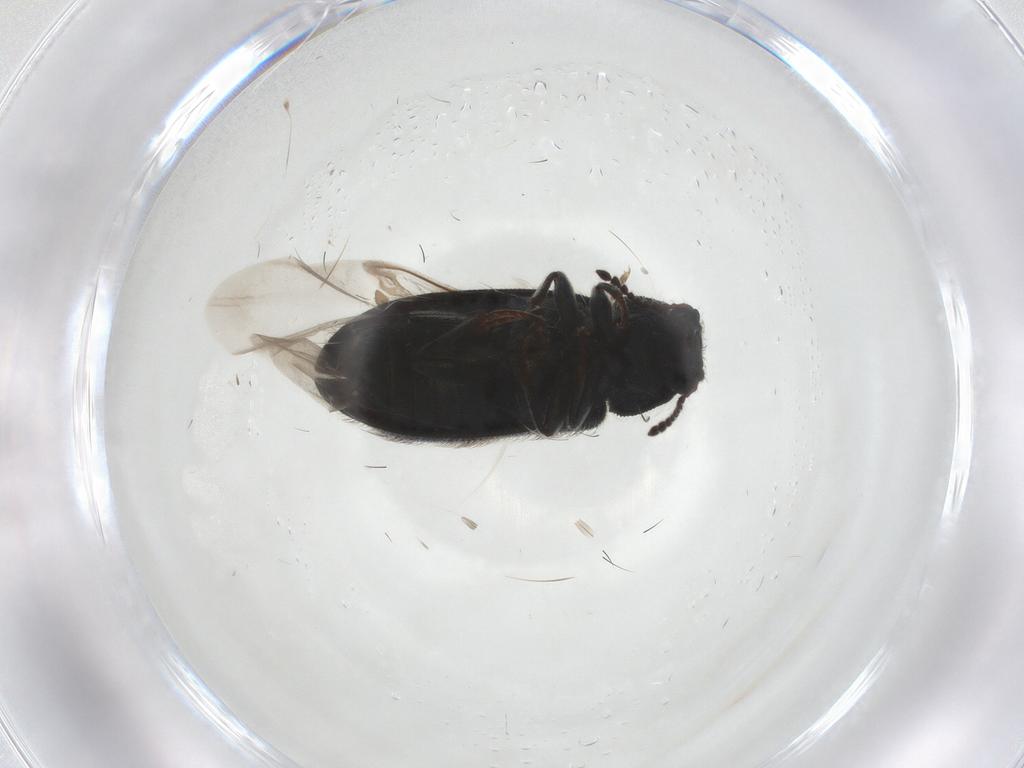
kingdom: Animalia
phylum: Arthropoda
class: Insecta
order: Coleoptera
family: Melyridae
